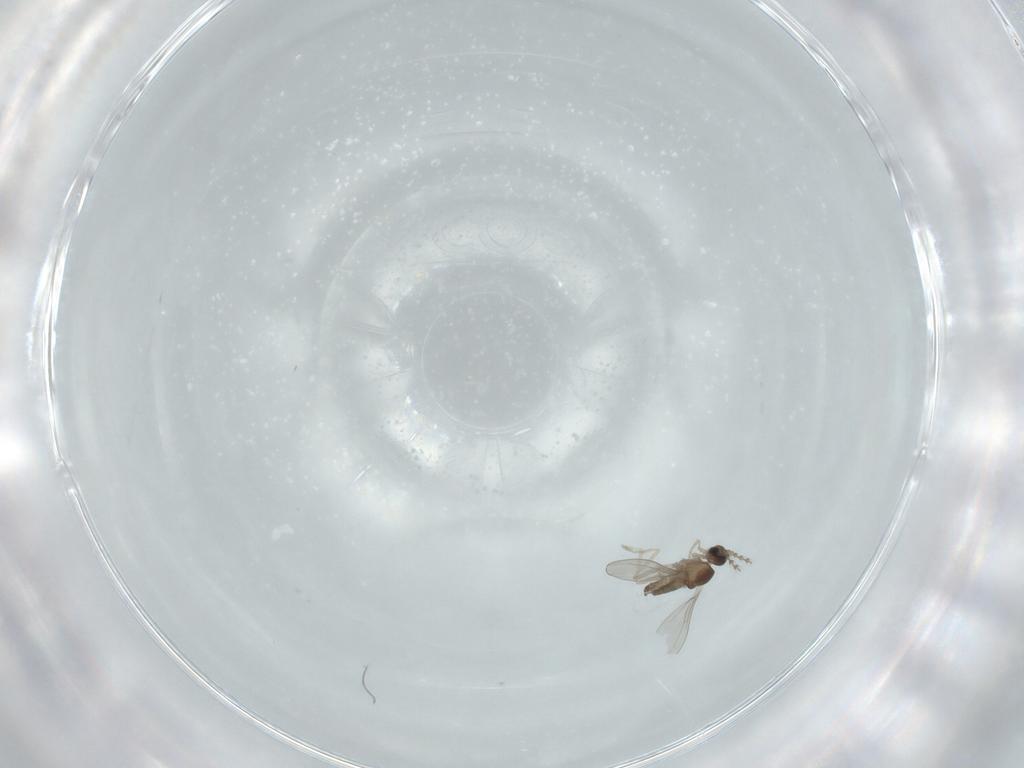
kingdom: Animalia
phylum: Arthropoda
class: Insecta
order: Diptera
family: Cecidomyiidae
